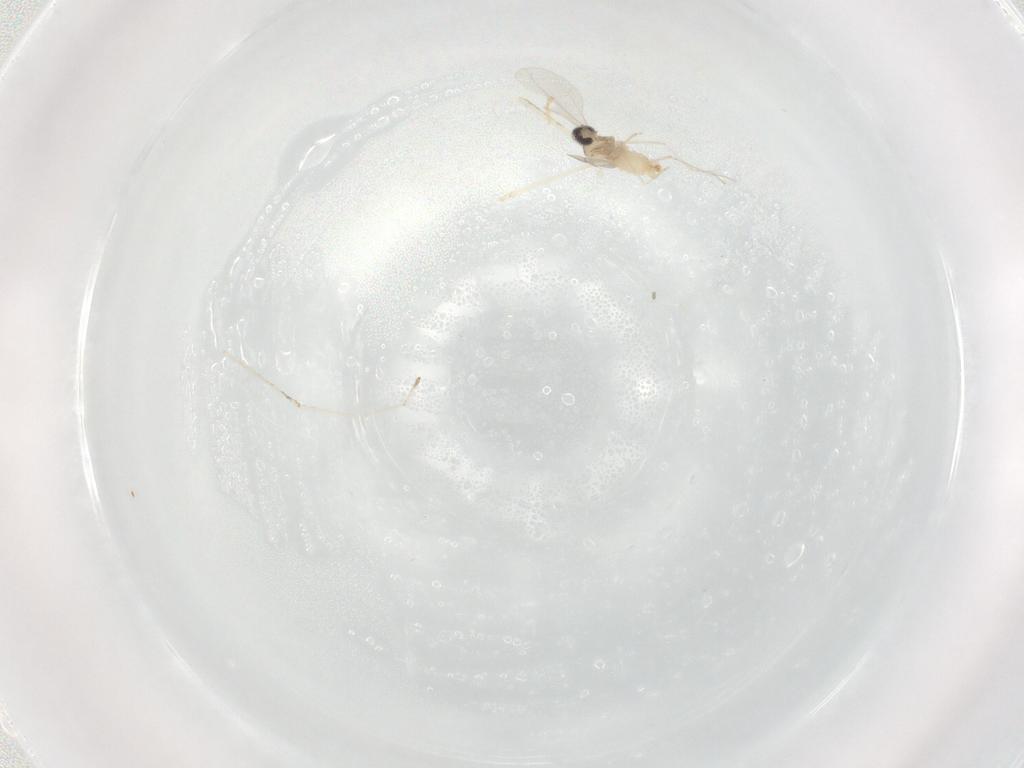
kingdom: Animalia
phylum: Arthropoda
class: Insecta
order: Diptera
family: Cecidomyiidae
